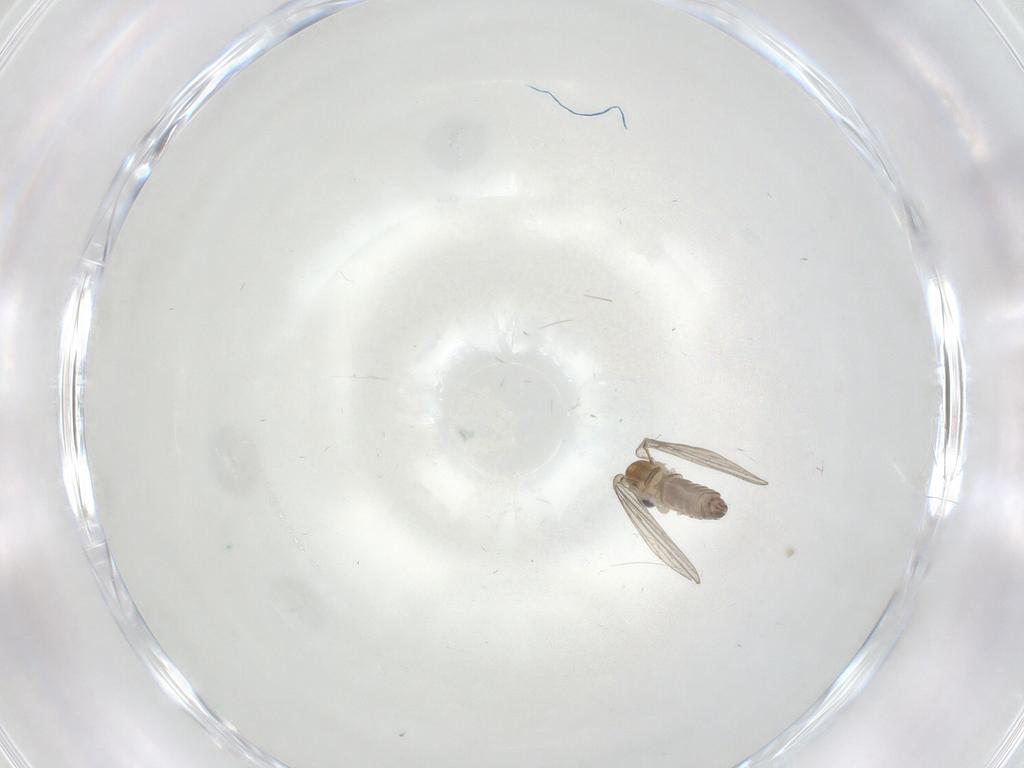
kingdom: Animalia
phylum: Arthropoda
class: Insecta
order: Diptera
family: Psychodidae
